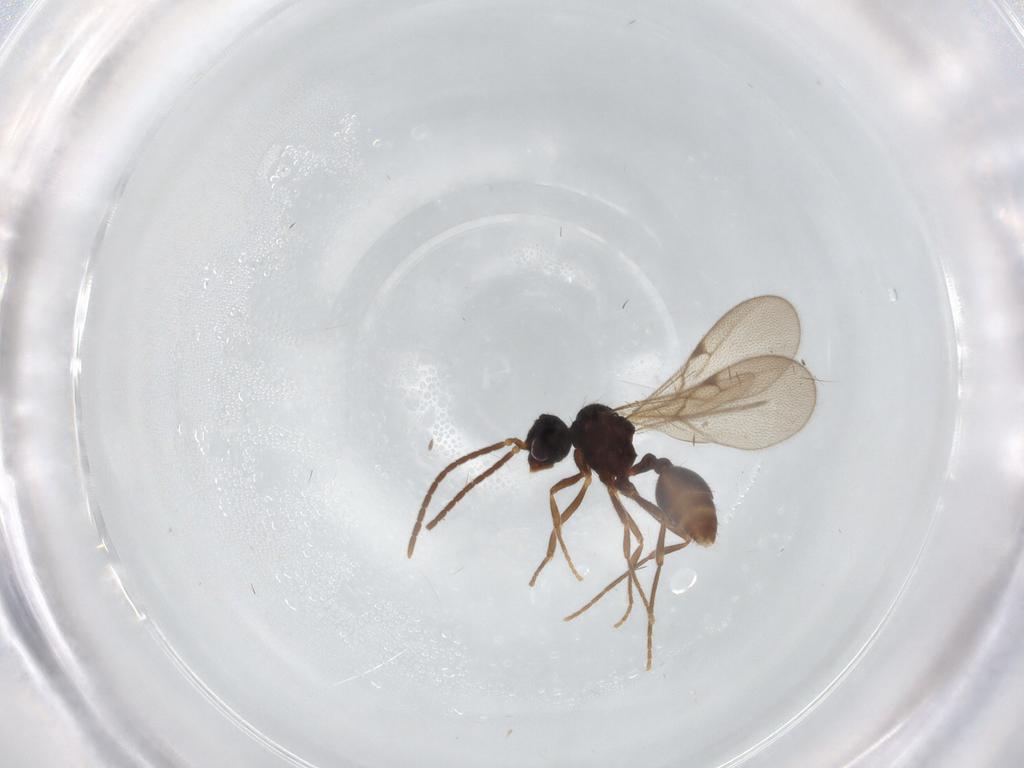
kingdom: Animalia
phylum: Arthropoda
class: Insecta
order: Hymenoptera
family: Formicidae
